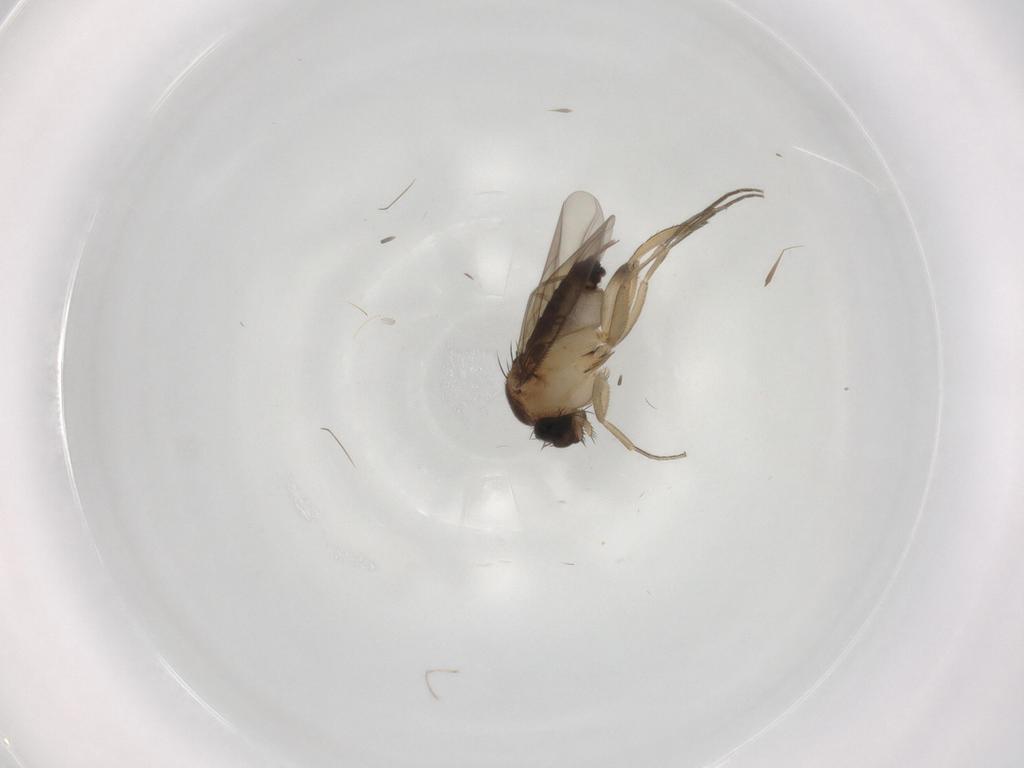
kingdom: Animalia
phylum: Arthropoda
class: Insecta
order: Diptera
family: Phoridae
